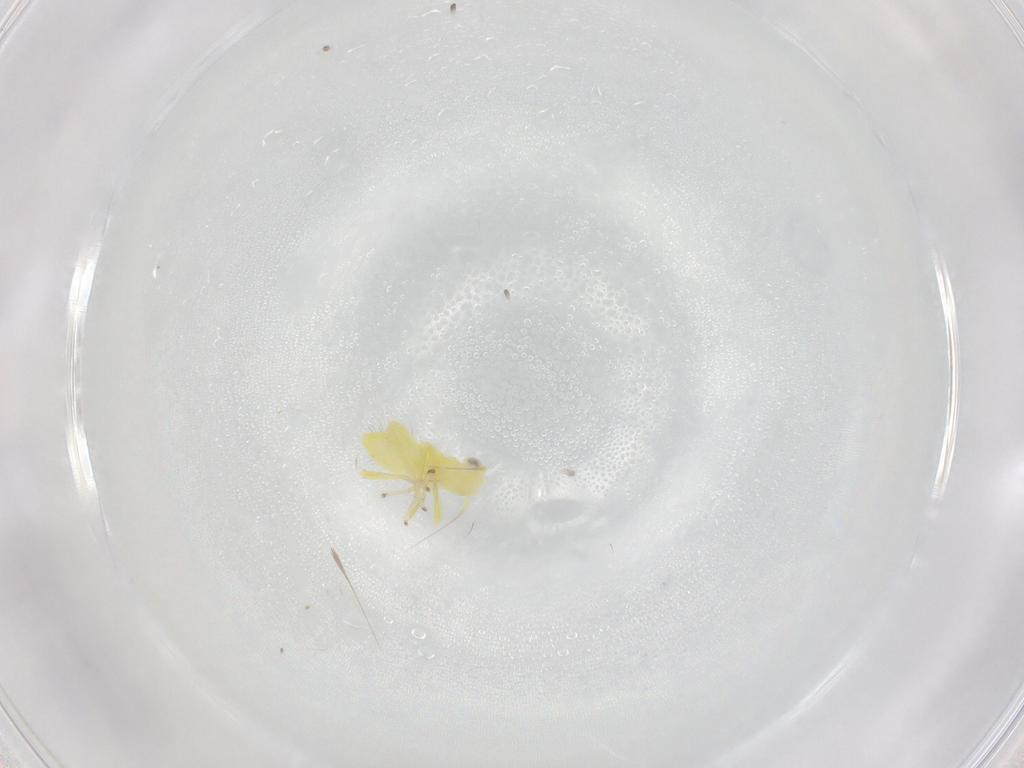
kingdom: Animalia
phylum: Arthropoda
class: Insecta
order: Hemiptera
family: Cicadellidae
